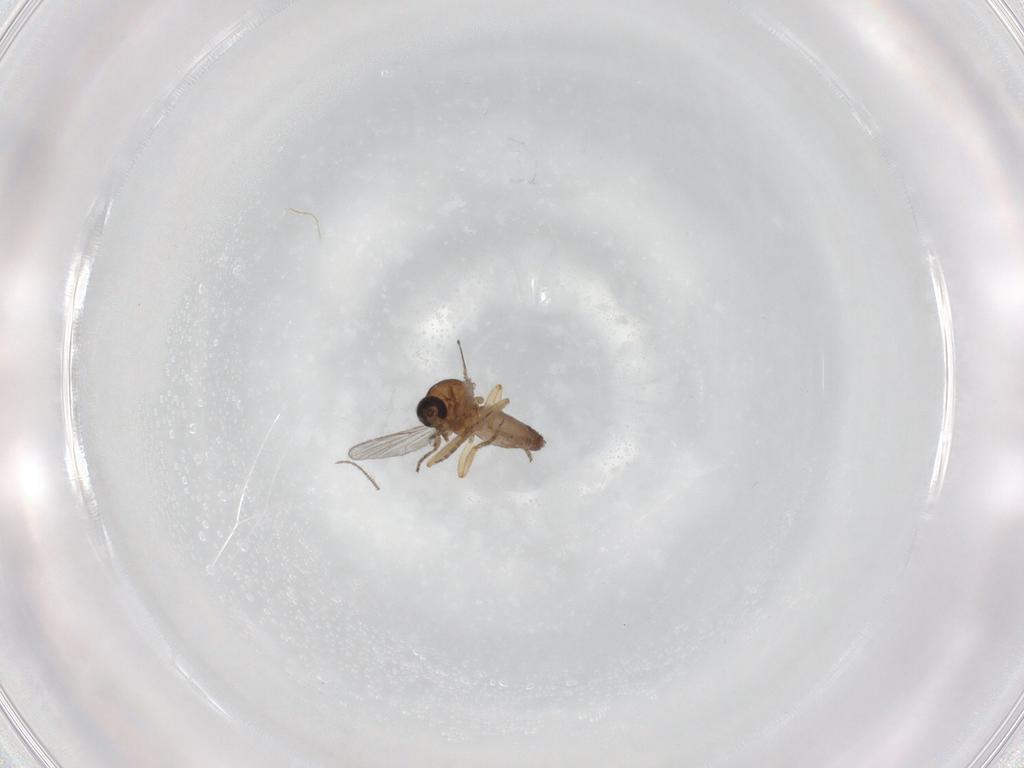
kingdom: Animalia
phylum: Arthropoda
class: Insecta
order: Diptera
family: Ceratopogonidae
